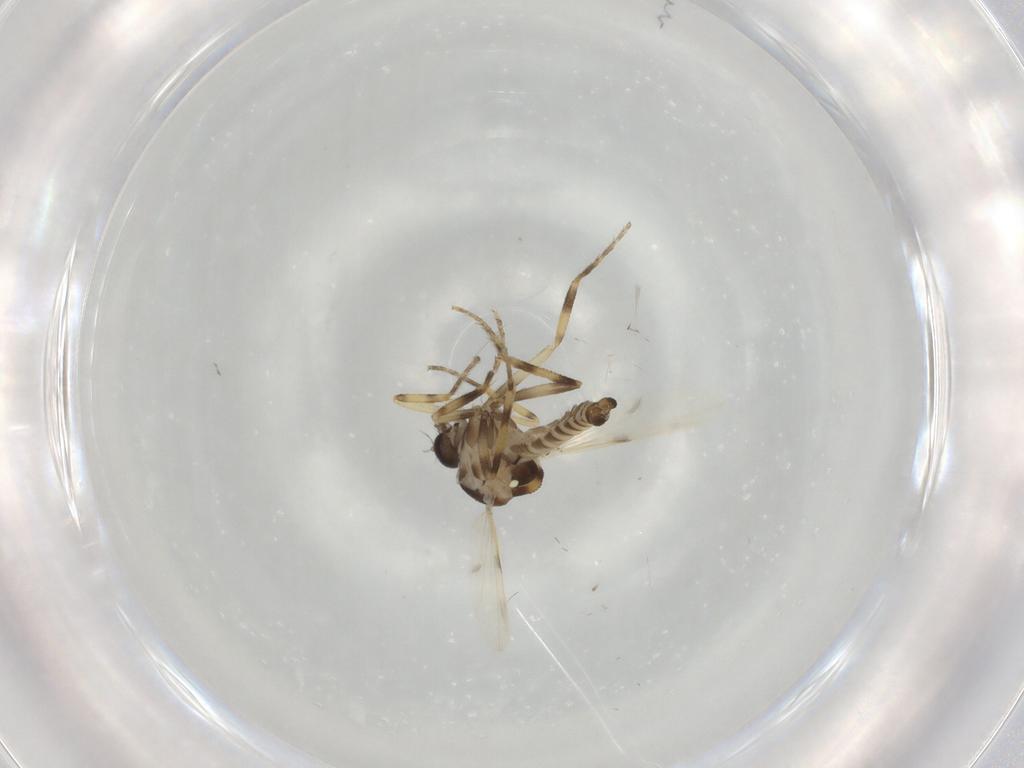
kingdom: Animalia
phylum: Arthropoda
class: Insecta
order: Diptera
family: Ceratopogonidae
